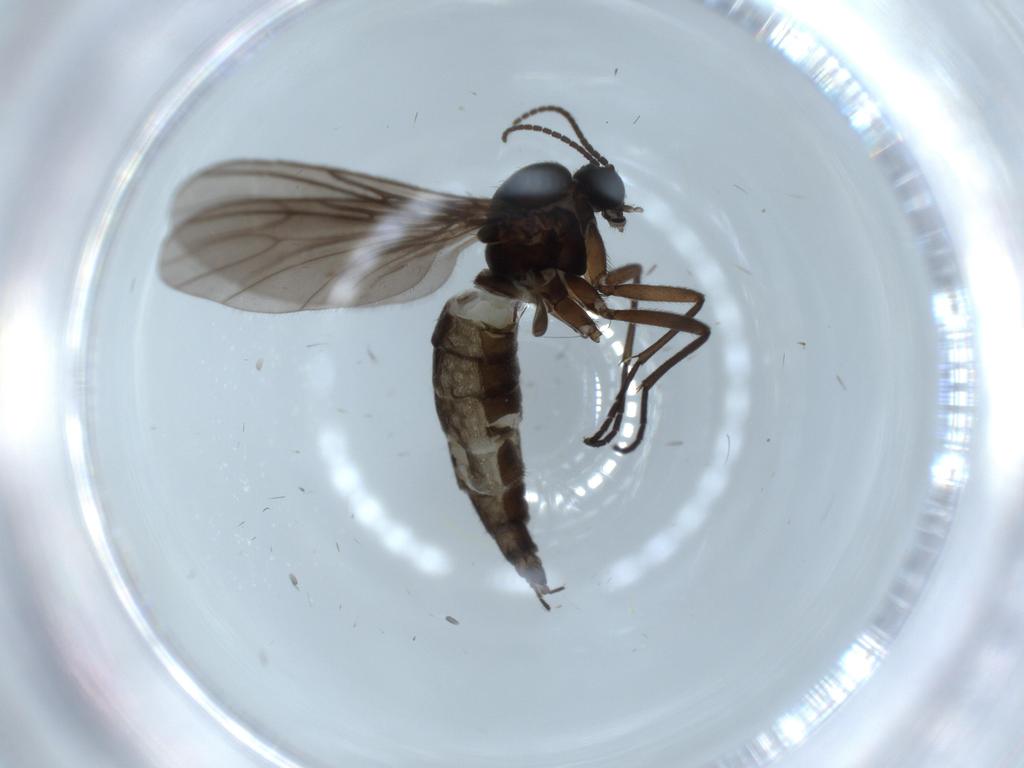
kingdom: Animalia
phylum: Arthropoda
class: Insecta
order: Diptera
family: Sciaridae
